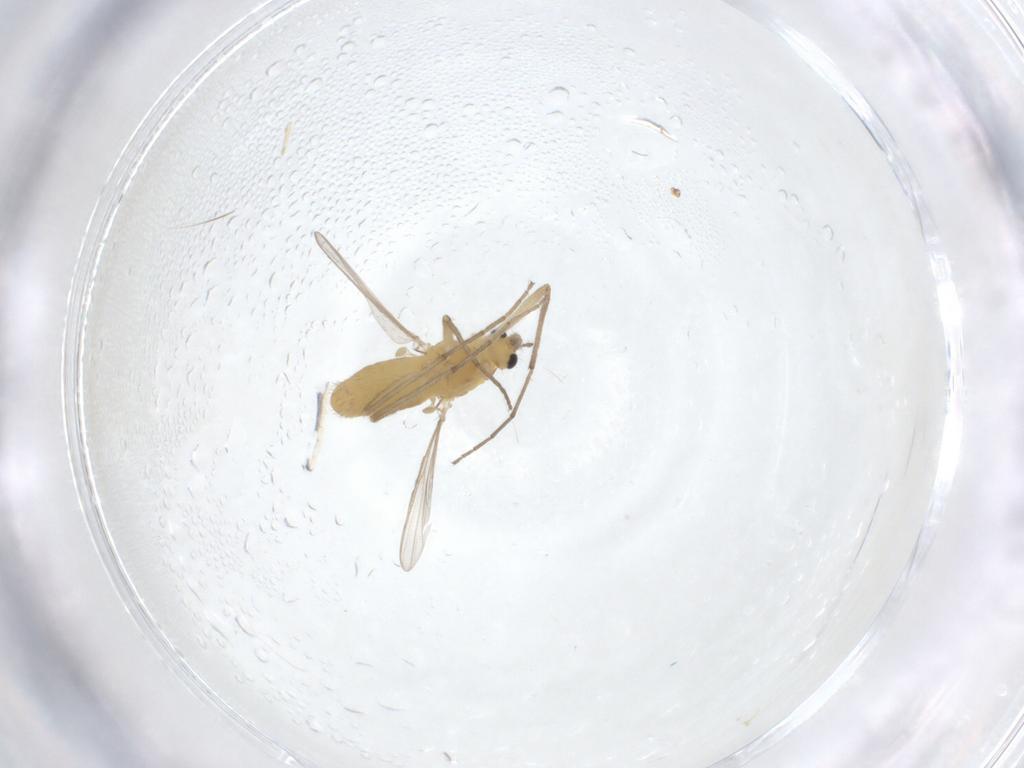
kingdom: Animalia
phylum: Arthropoda
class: Insecta
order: Diptera
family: Chironomidae
